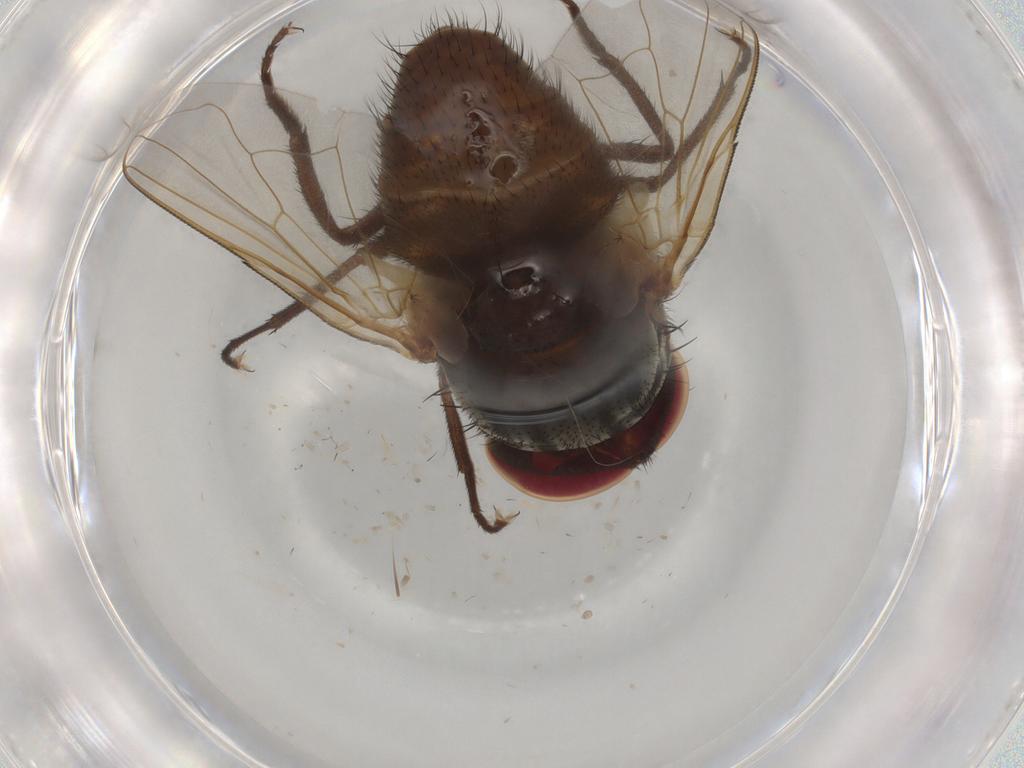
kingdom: Animalia
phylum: Arthropoda
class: Insecta
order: Diptera
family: Muscidae
